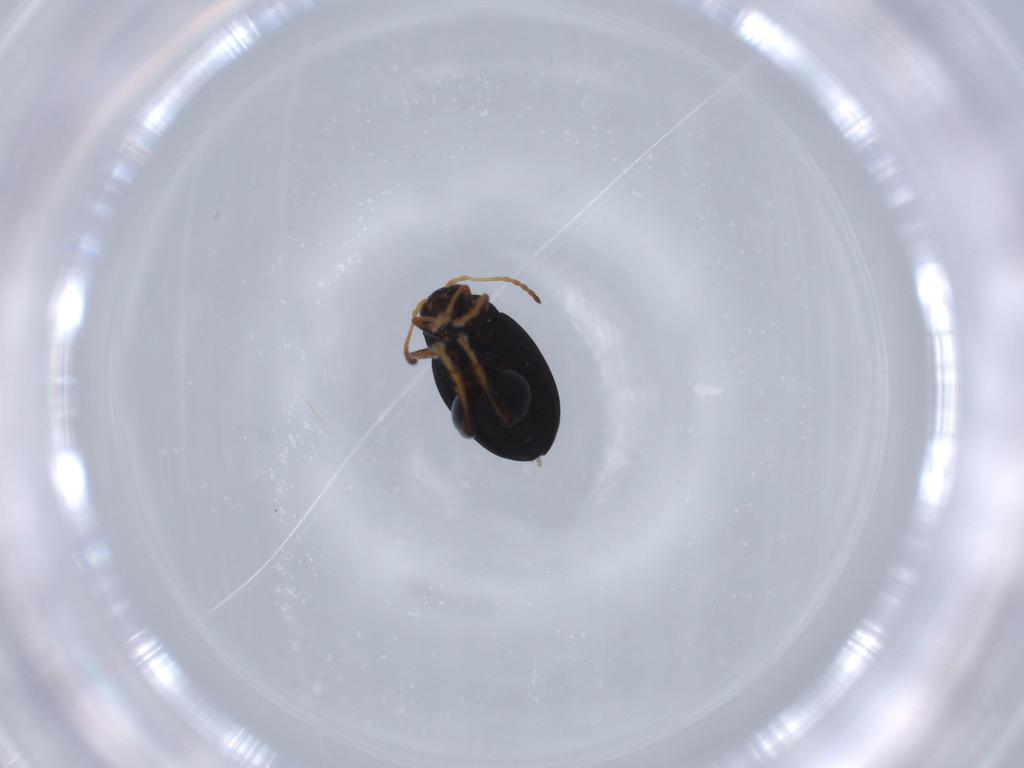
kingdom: Animalia
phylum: Arthropoda
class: Insecta
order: Coleoptera
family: Chrysomelidae
